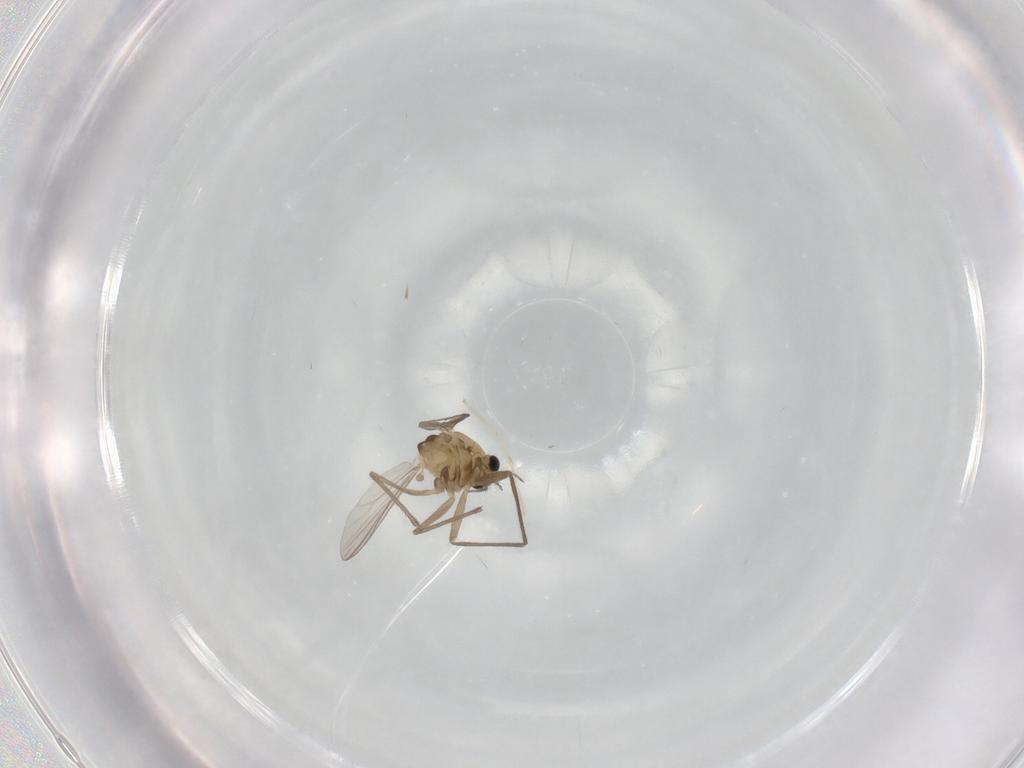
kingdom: Animalia
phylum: Arthropoda
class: Insecta
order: Diptera
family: Chironomidae
